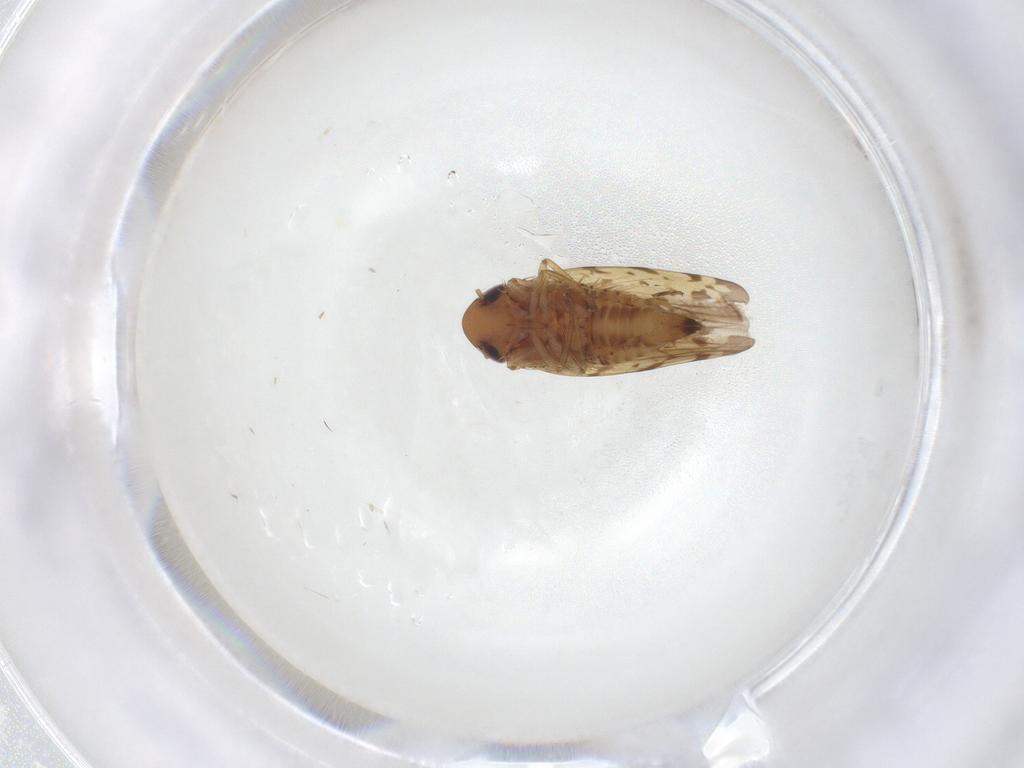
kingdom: Animalia
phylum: Arthropoda
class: Insecta
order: Hemiptera
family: Cicadellidae
